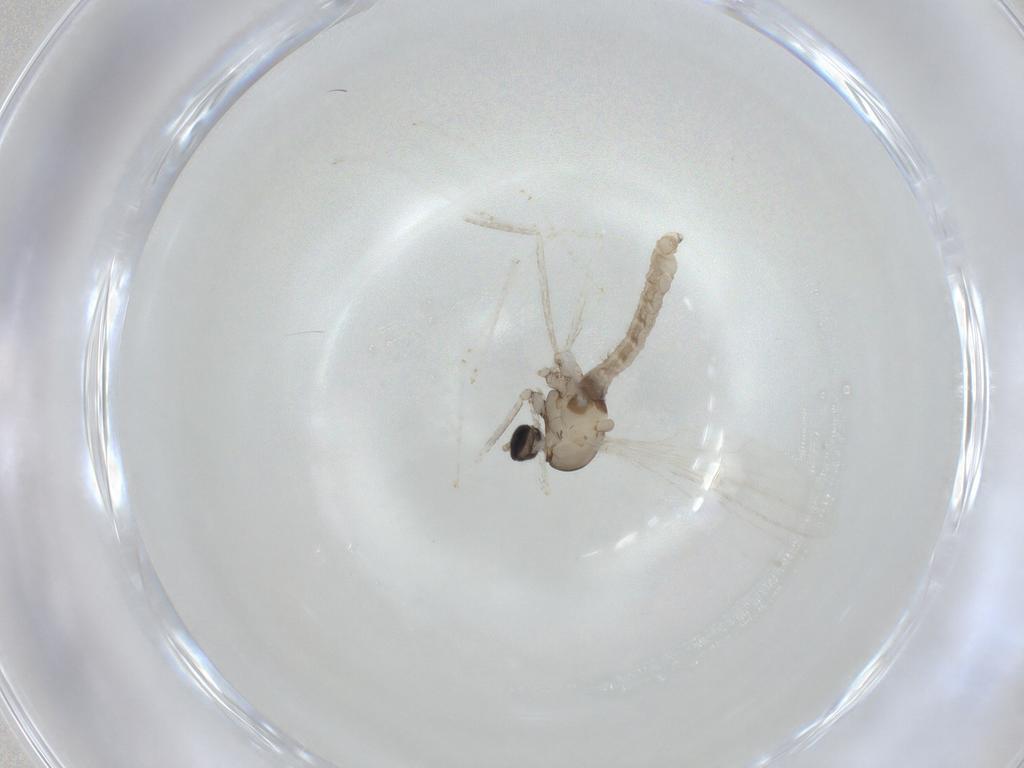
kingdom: Animalia
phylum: Arthropoda
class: Insecta
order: Diptera
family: Cecidomyiidae
